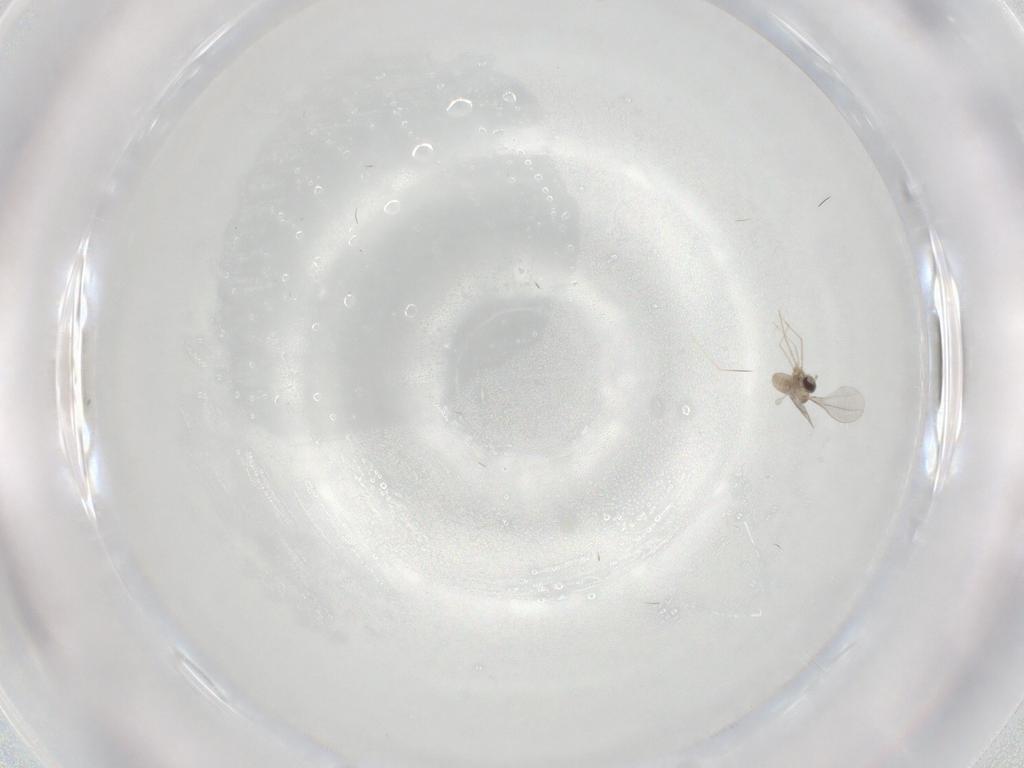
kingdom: Animalia
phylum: Arthropoda
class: Insecta
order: Diptera
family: Cecidomyiidae
